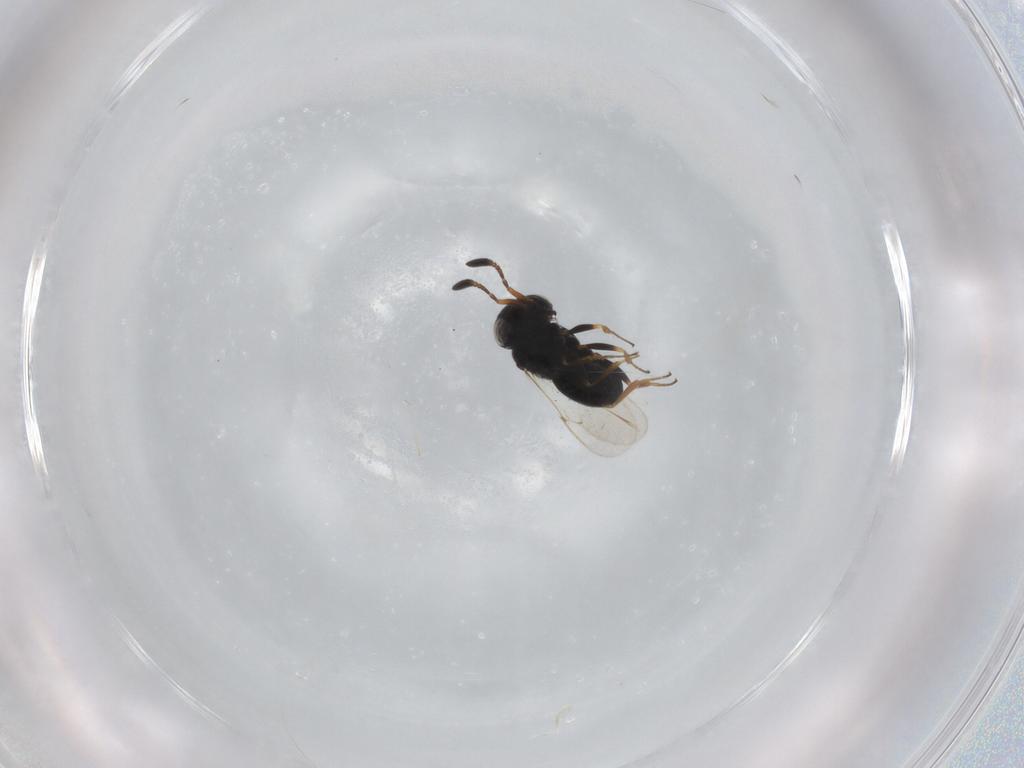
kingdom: Animalia
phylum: Arthropoda
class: Insecta
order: Coleoptera
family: Curculionidae
